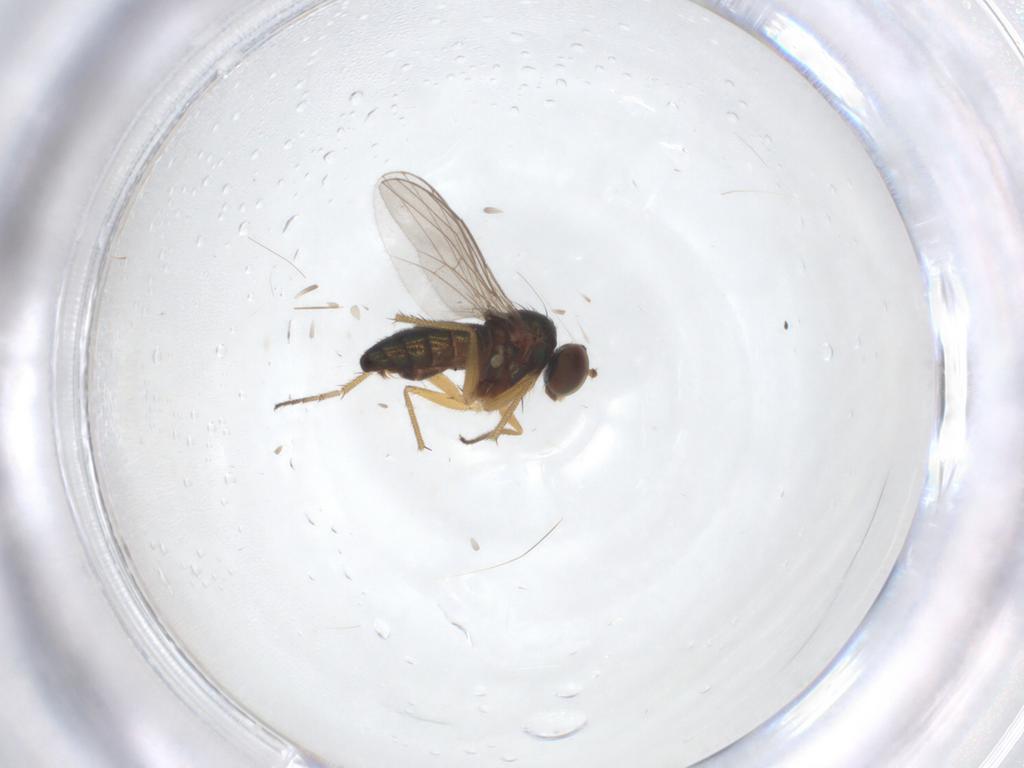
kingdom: Animalia
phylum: Arthropoda
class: Insecta
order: Diptera
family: Dolichopodidae
